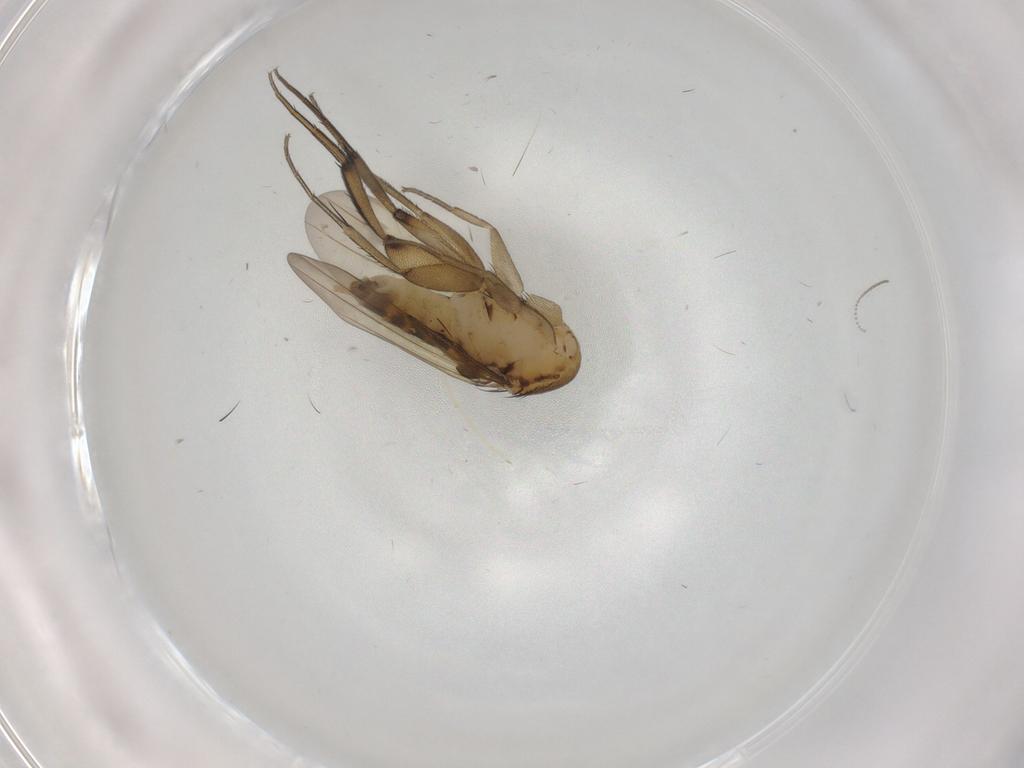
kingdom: Animalia
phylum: Arthropoda
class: Insecta
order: Diptera
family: Phoridae
